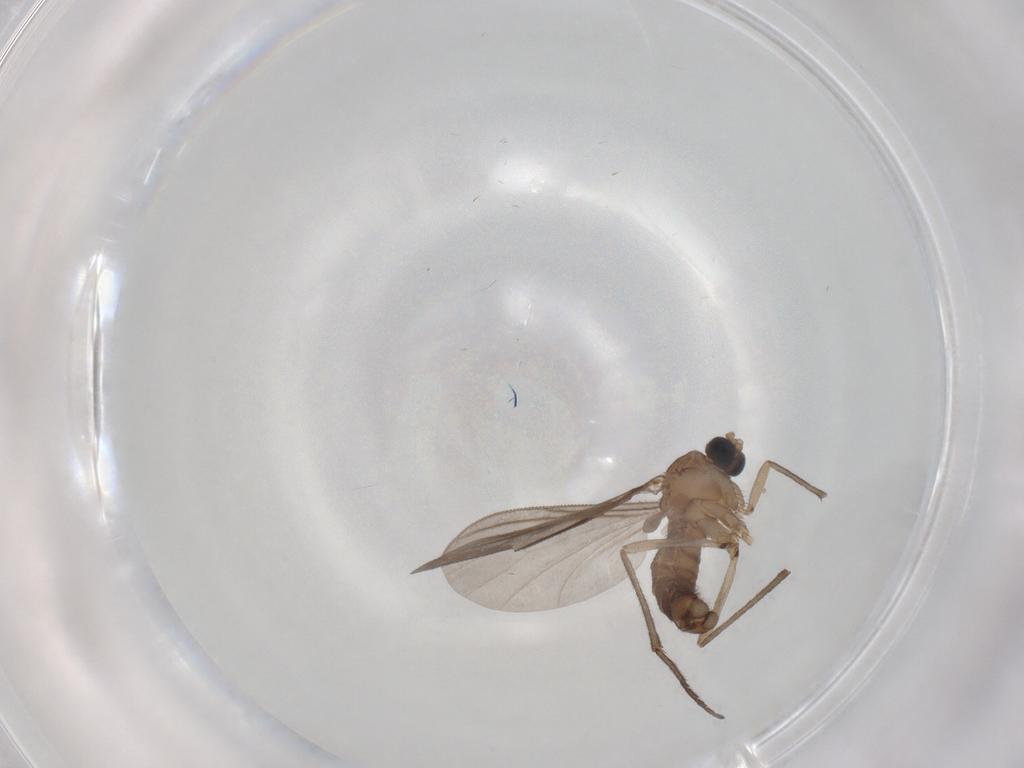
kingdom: Animalia
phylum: Arthropoda
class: Insecta
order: Diptera
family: Sciaridae
